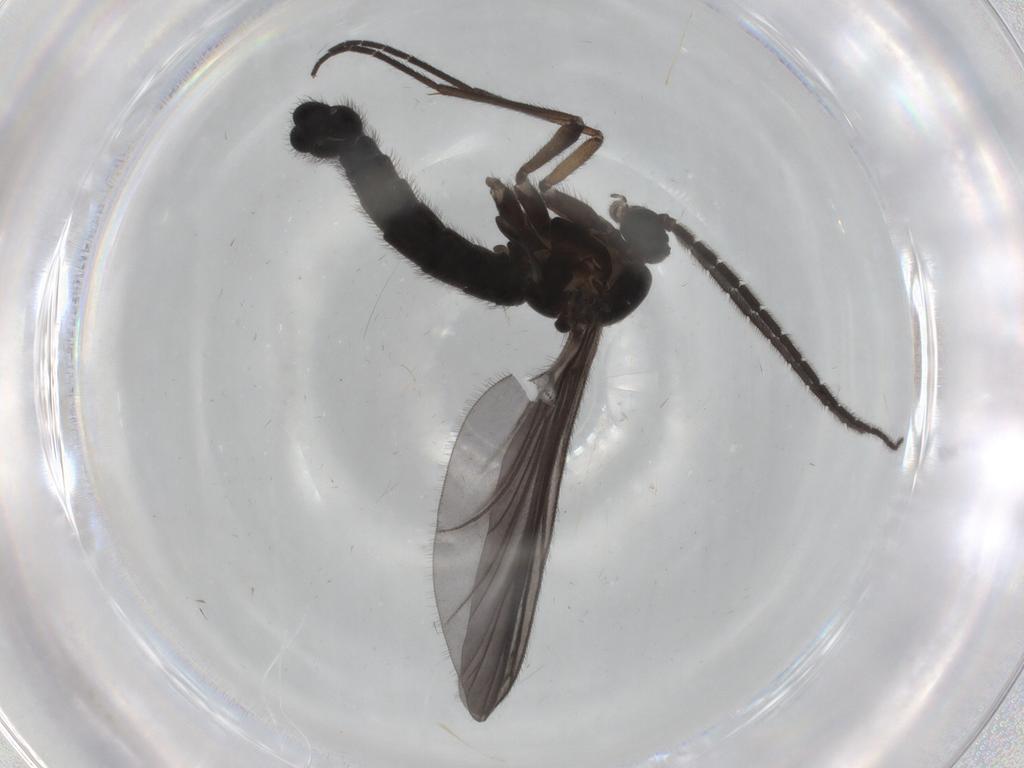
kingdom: Animalia
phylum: Arthropoda
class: Insecta
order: Diptera
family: Sciaridae
